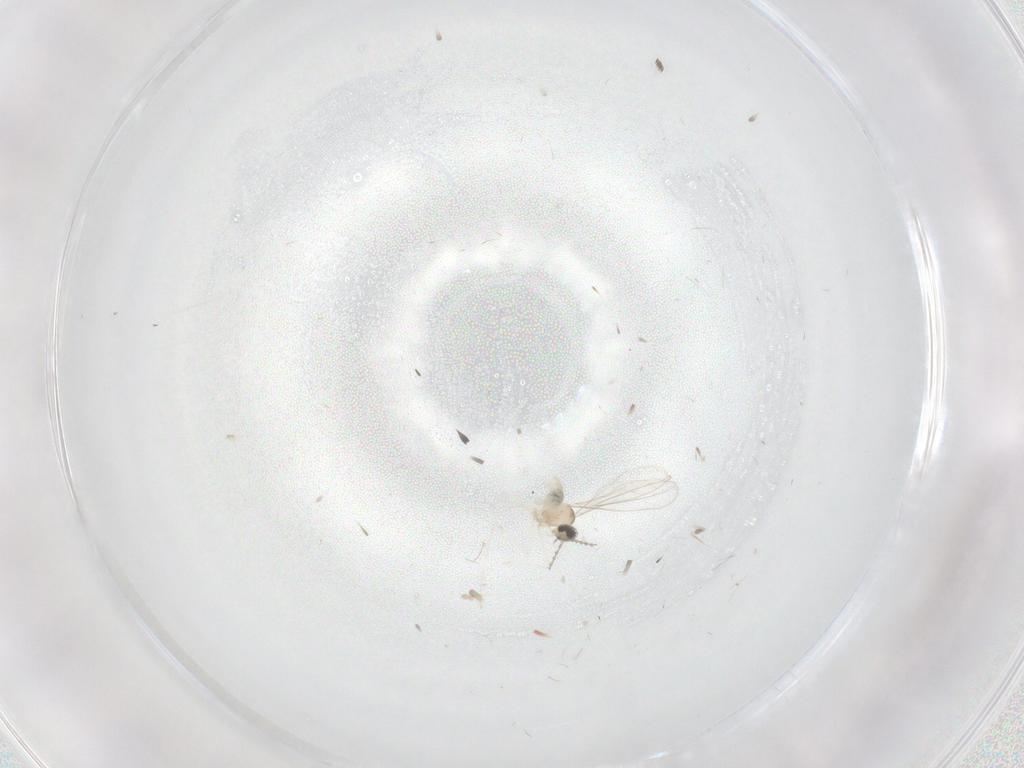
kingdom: Animalia
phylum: Arthropoda
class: Insecta
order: Diptera
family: Cecidomyiidae
